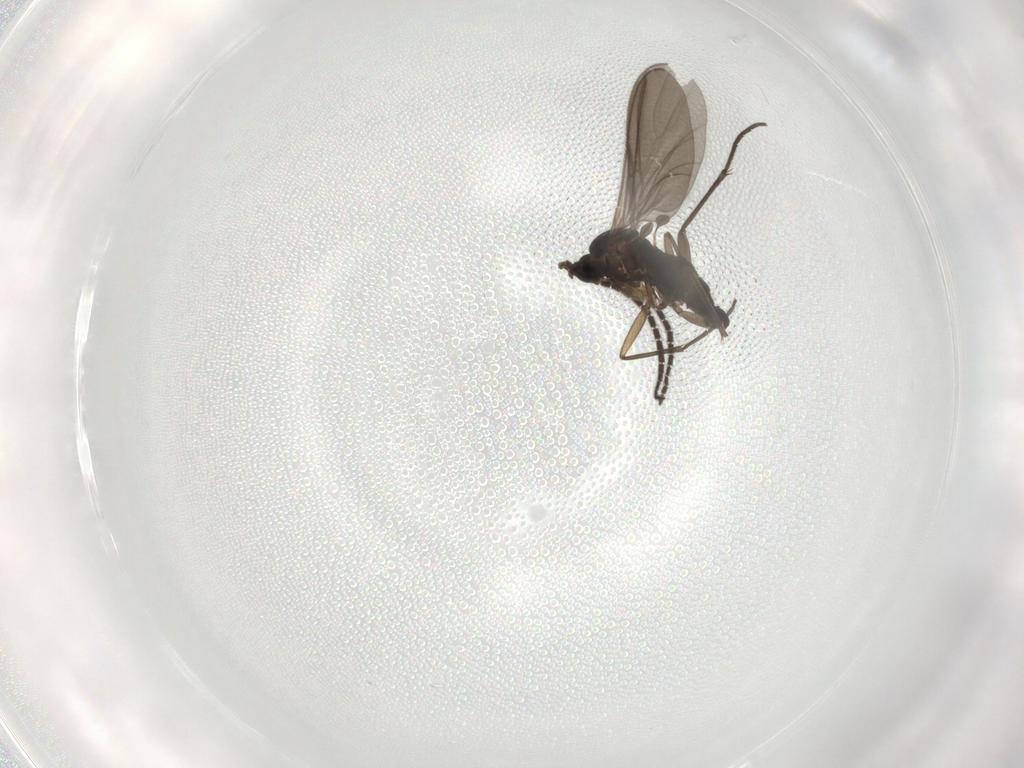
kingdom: Animalia
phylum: Arthropoda
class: Insecta
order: Diptera
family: Sciaridae
